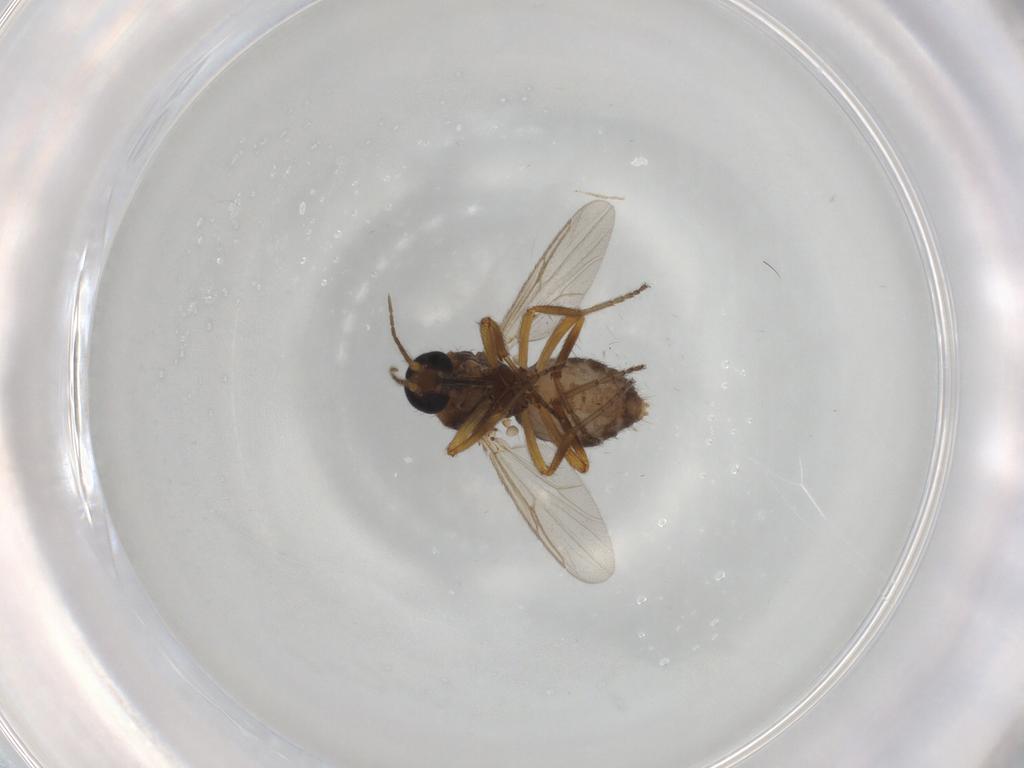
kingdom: Animalia
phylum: Arthropoda
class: Insecta
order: Diptera
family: Ceratopogonidae
